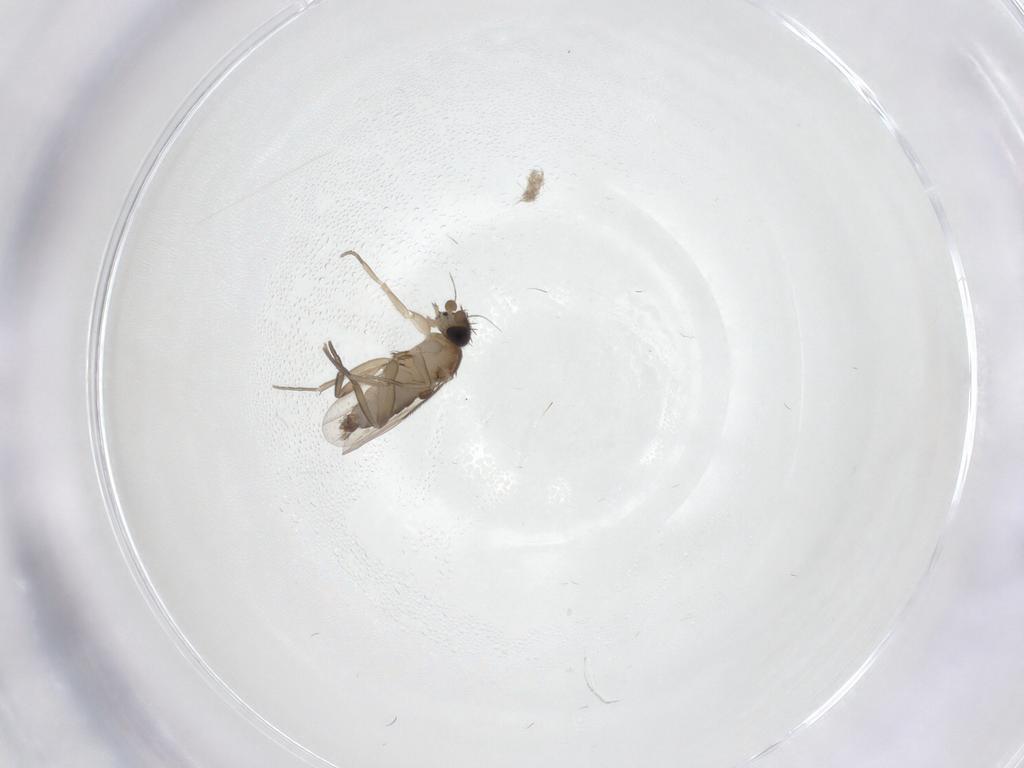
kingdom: Animalia
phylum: Arthropoda
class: Insecta
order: Diptera
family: Phoridae
